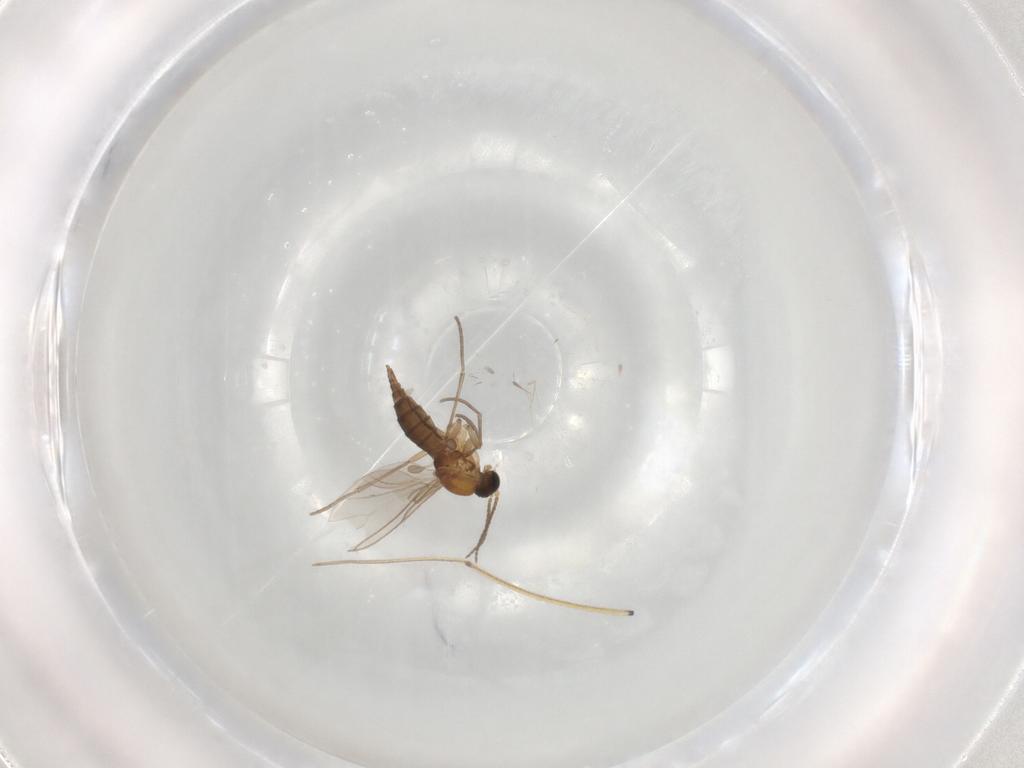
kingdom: Animalia
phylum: Arthropoda
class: Insecta
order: Diptera
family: Sciaridae
